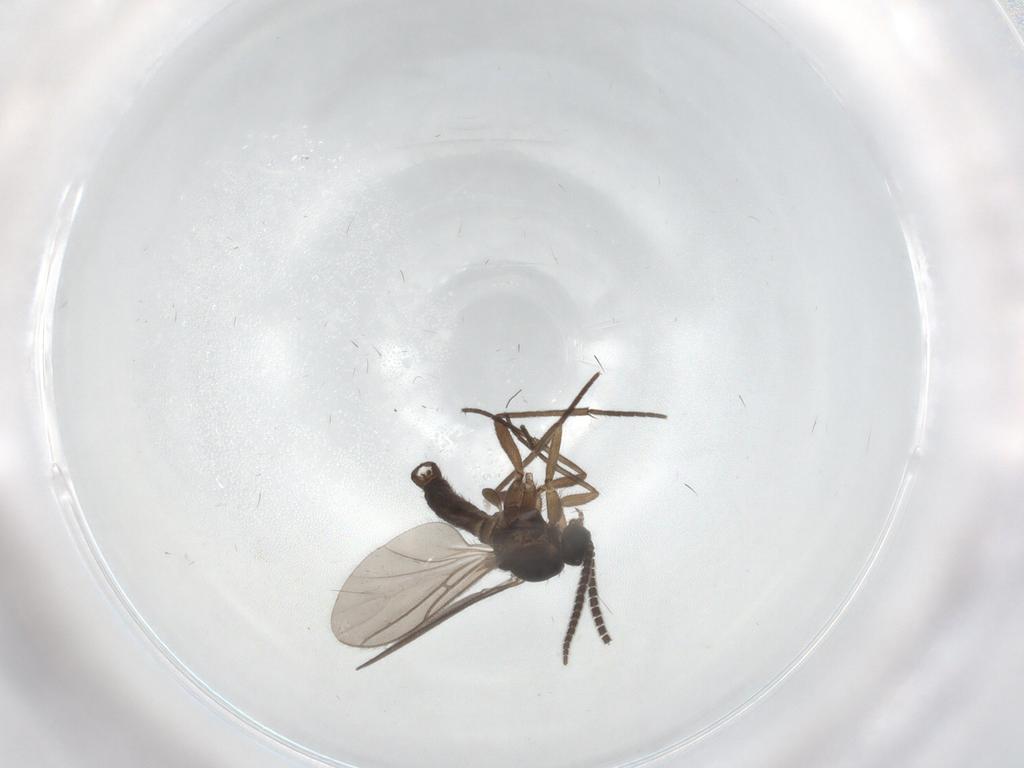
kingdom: Animalia
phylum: Arthropoda
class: Insecta
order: Diptera
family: Sciaridae
